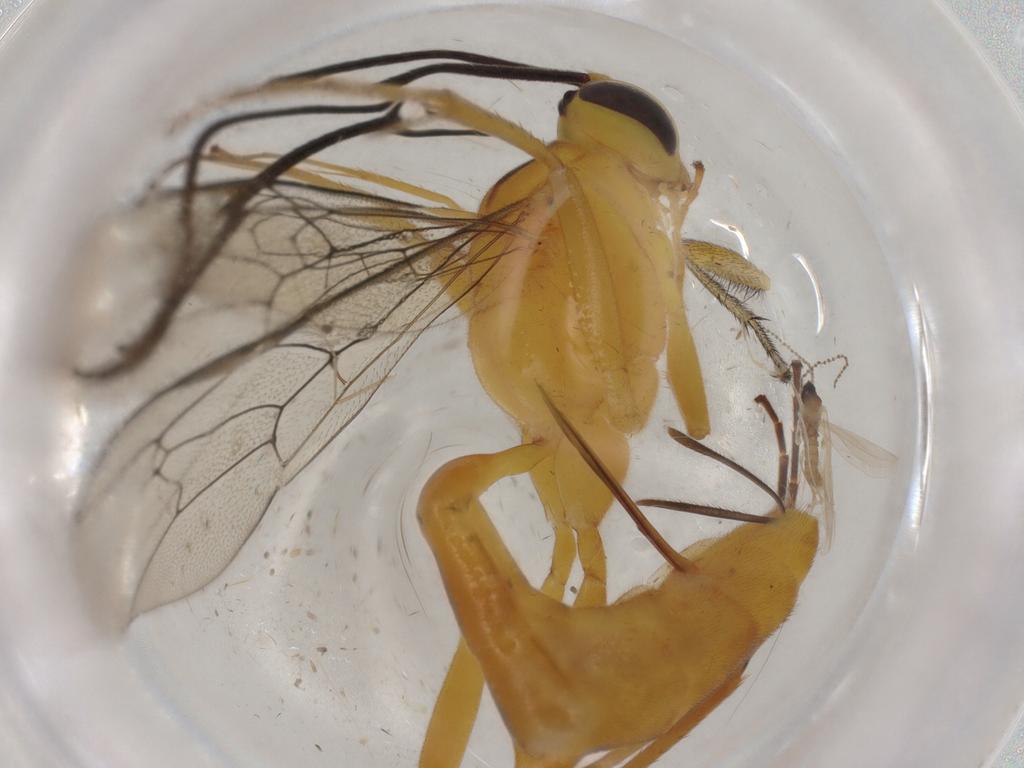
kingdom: Animalia
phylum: Arthropoda
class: Insecta
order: Hymenoptera
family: Ichneumonidae
